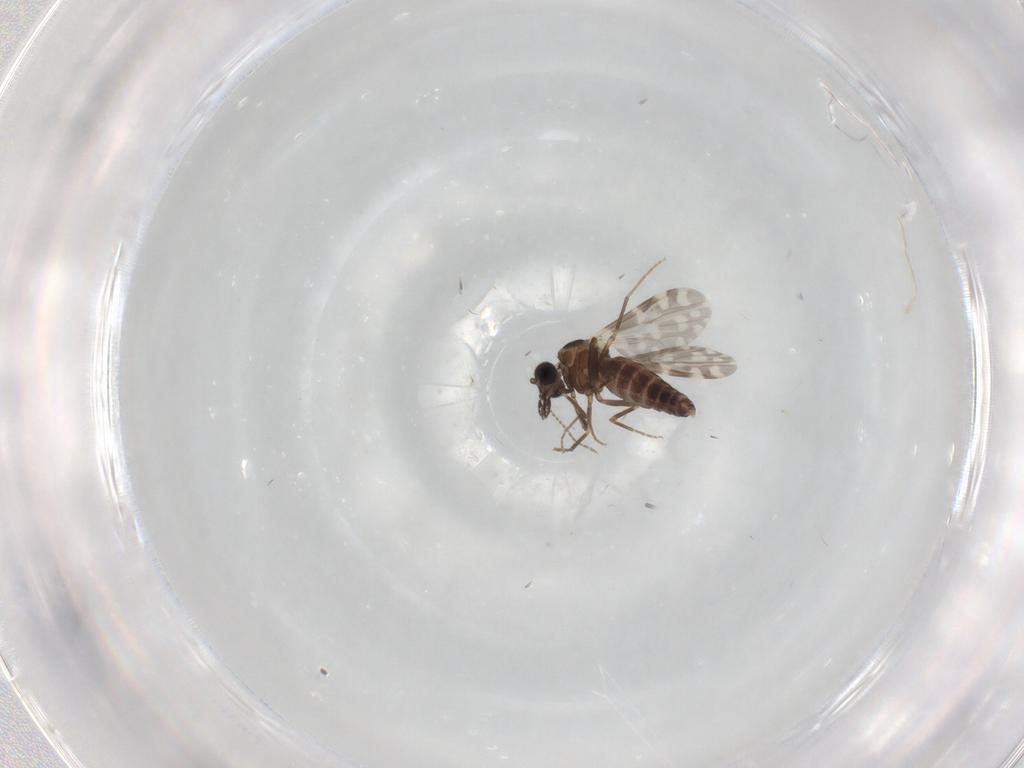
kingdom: Animalia
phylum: Arthropoda
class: Insecta
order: Diptera
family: Ceratopogonidae
